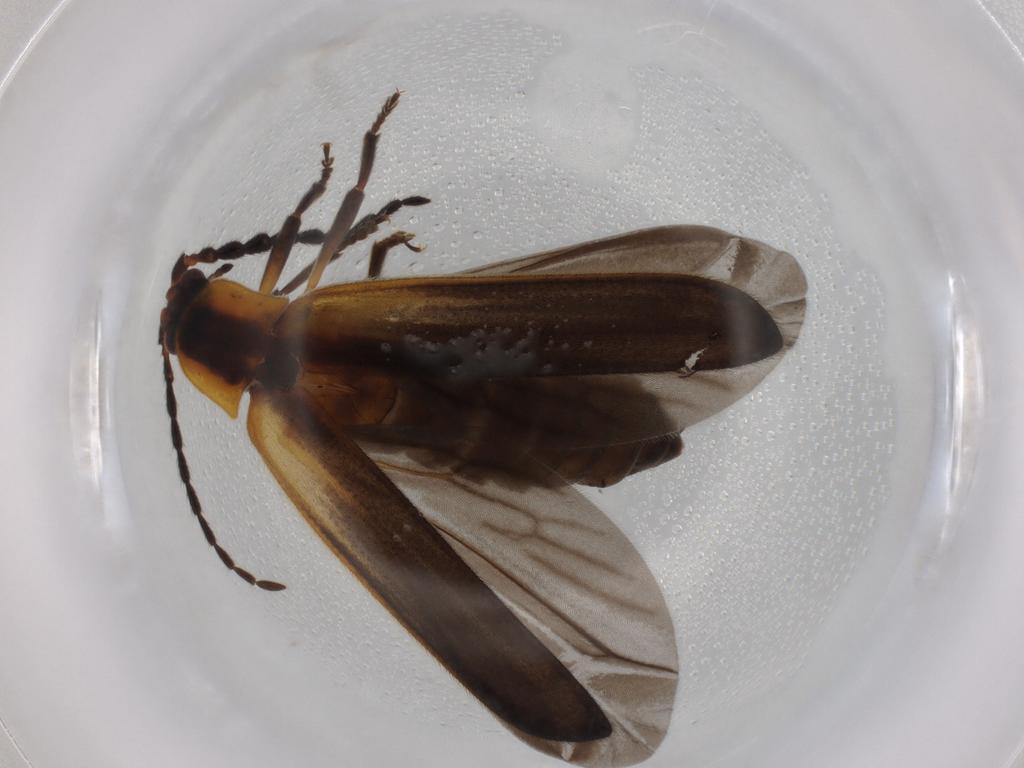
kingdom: Animalia
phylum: Arthropoda
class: Insecta
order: Coleoptera
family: Lycidae
